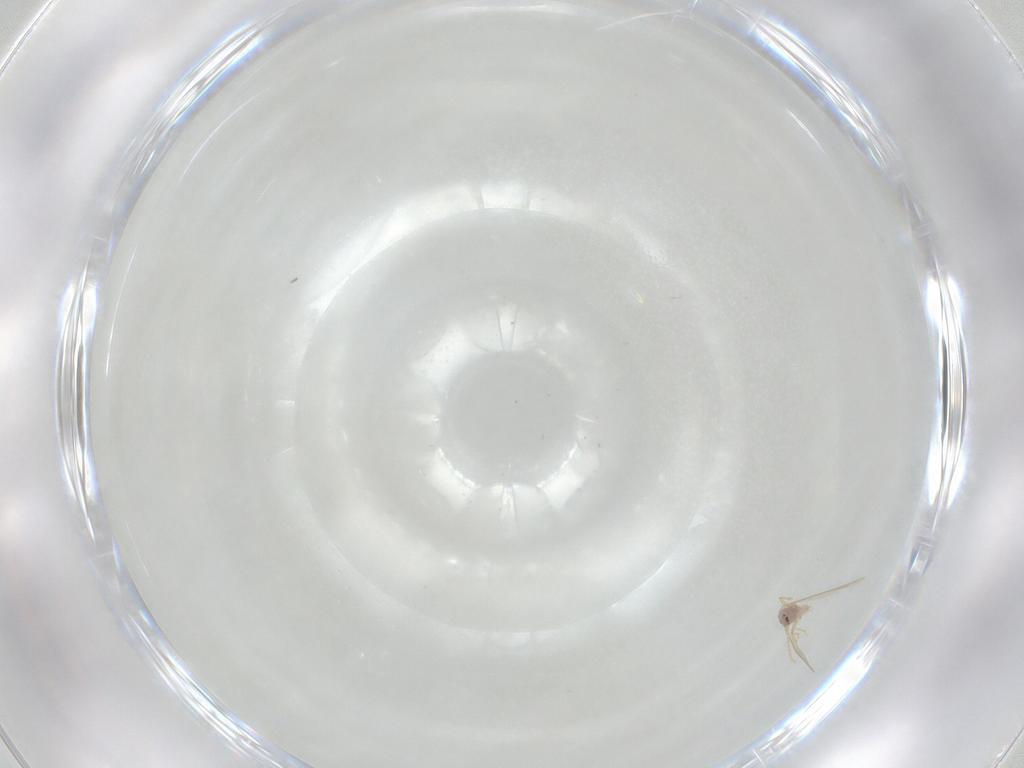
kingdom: Animalia
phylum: Arthropoda
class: Insecta
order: Hemiptera
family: Pseudococcidae
